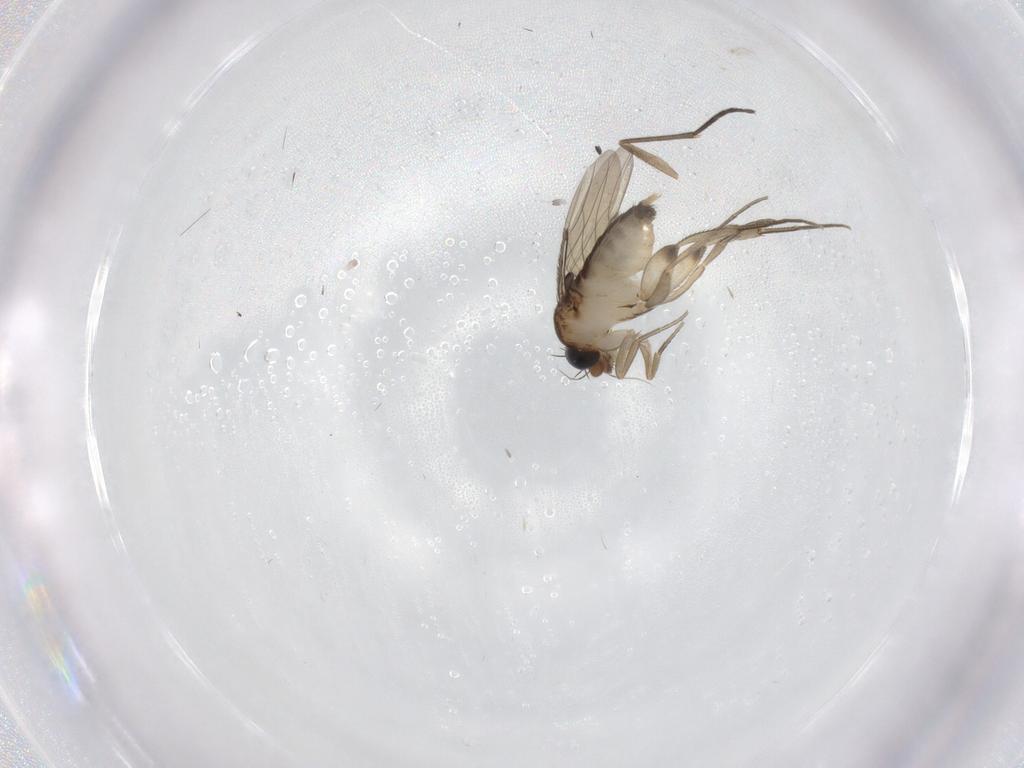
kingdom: Animalia
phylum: Arthropoda
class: Insecta
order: Diptera
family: Phoridae
